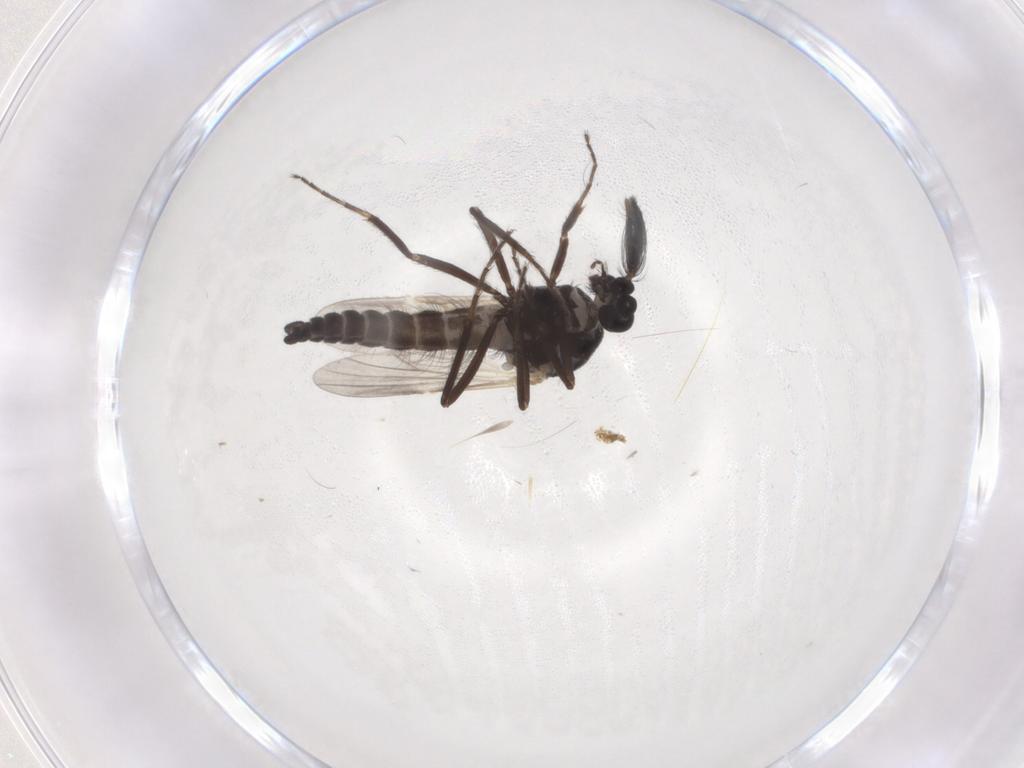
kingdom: Animalia
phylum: Arthropoda
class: Insecta
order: Diptera
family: Ceratopogonidae
